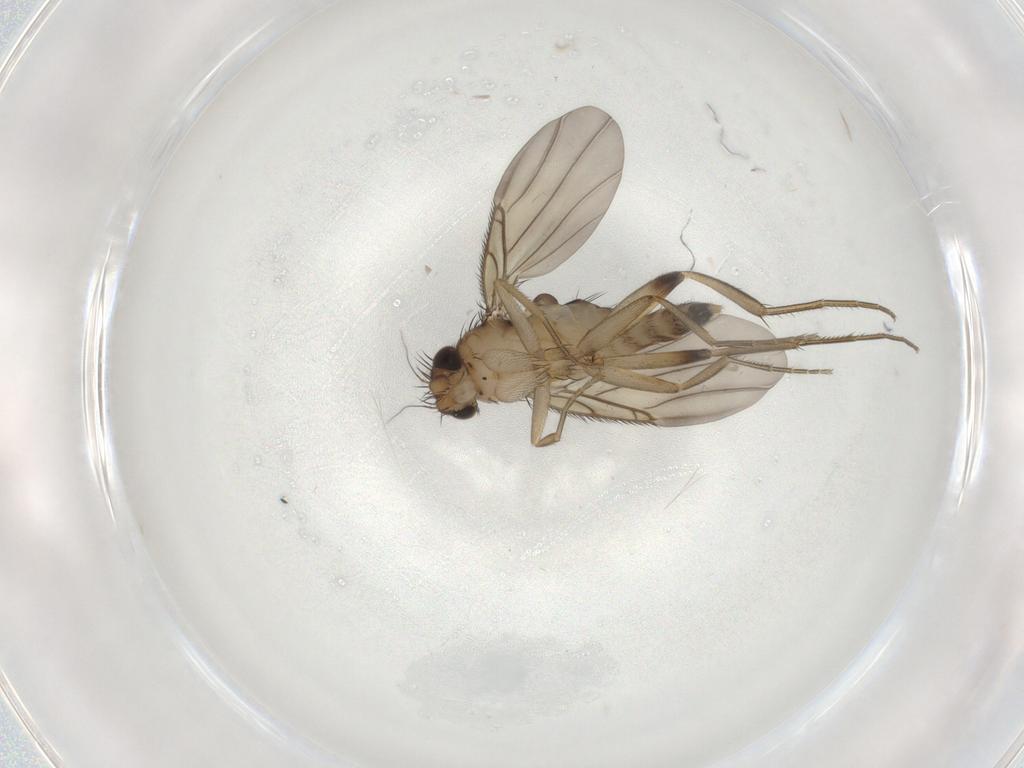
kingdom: Animalia
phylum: Arthropoda
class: Insecta
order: Diptera
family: Phoridae
